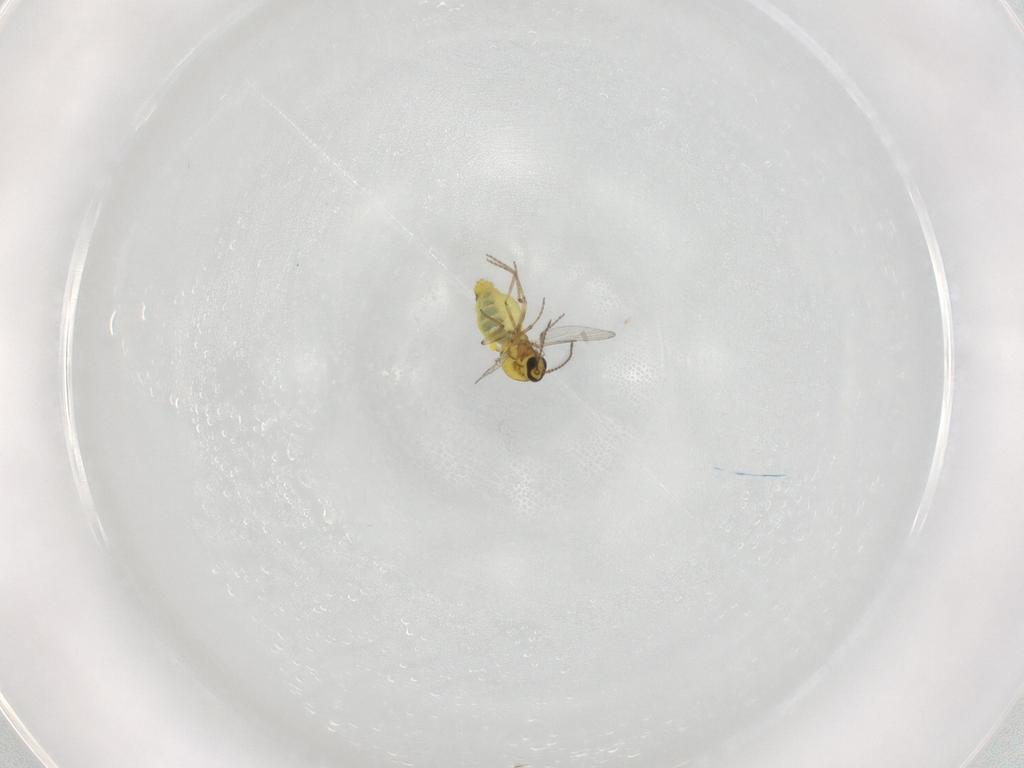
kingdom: Animalia
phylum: Arthropoda
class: Insecta
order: Diptera
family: Ceratopogonidae
